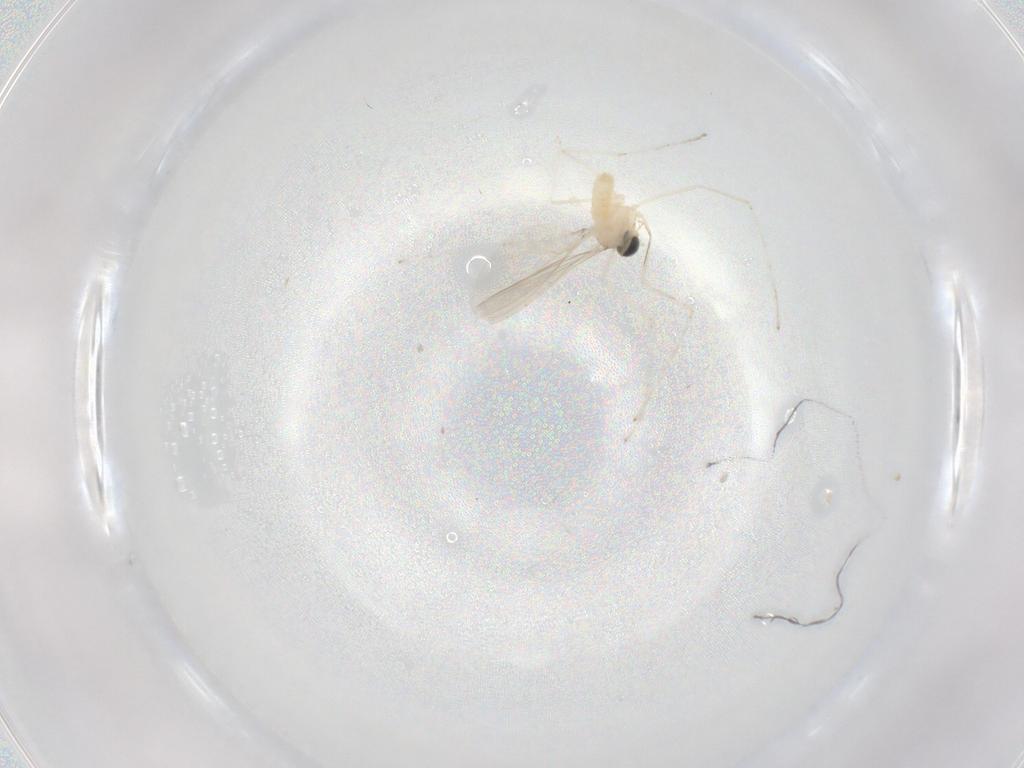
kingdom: Animalia
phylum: Arthropoda
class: Insecta
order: Diptera
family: Cecidomyiidae
